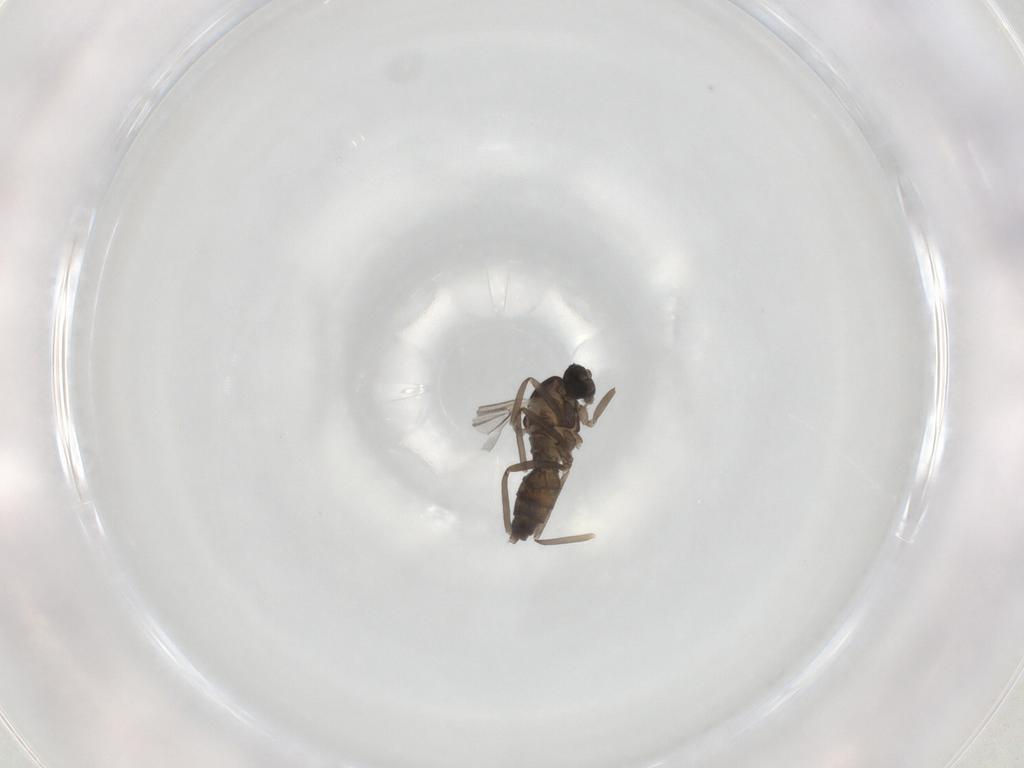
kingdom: Animalia
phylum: Arthropoda
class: Insecta
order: Diptera
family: Cecidomyiidae
